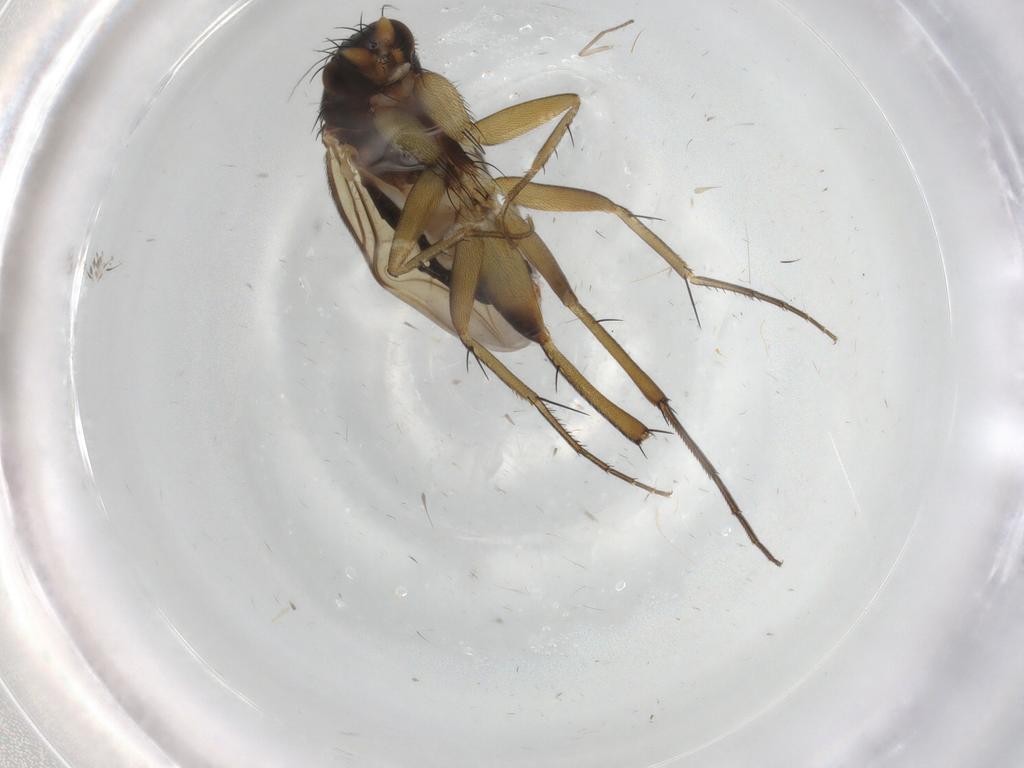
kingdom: Animalia
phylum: Arthropoda
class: Insecta
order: Diptera
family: Phoridae
